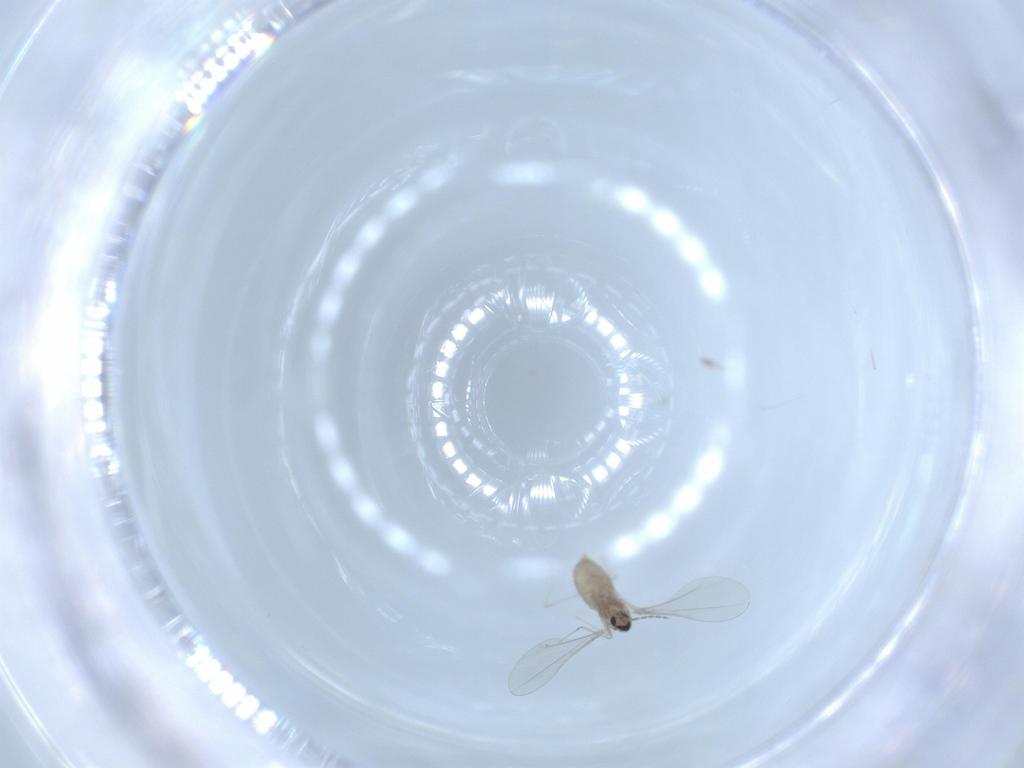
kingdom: Animalia
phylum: Arthropoda
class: Insecta
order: Diptera
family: Cecidomyiidae
